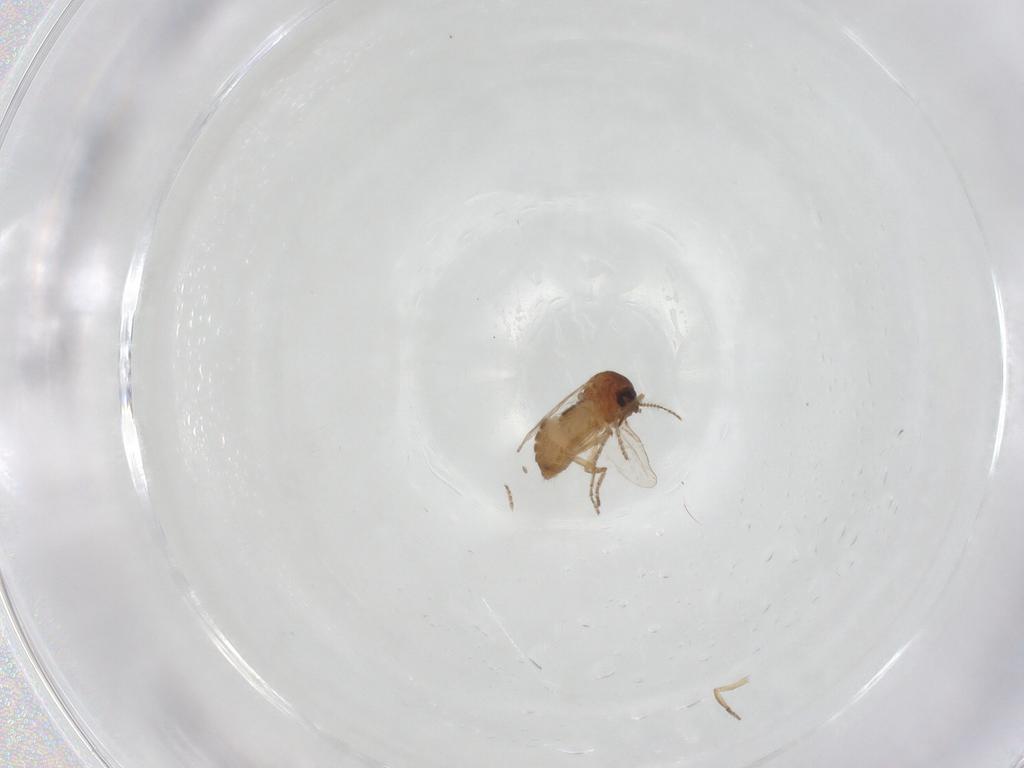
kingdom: Animalia
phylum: Arthropoda
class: Insecta
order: Diptera
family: Ceratopogonidae
